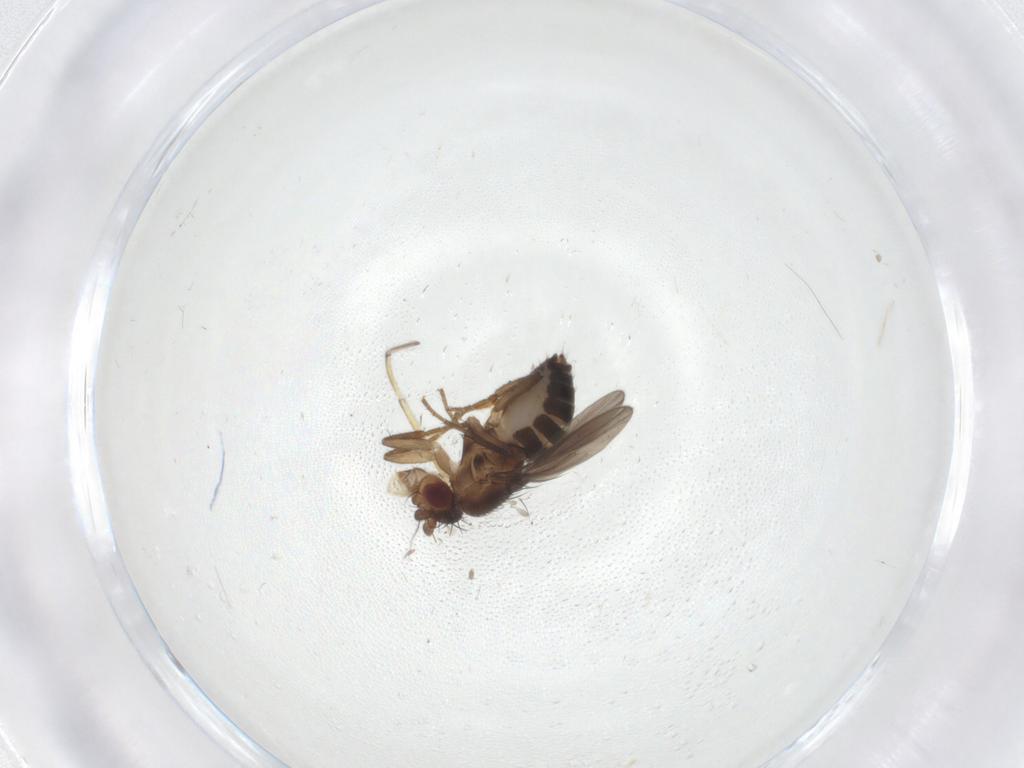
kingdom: Animalia
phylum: Arthropoda
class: Insecta
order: Diptera
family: Sphaeroceridae
